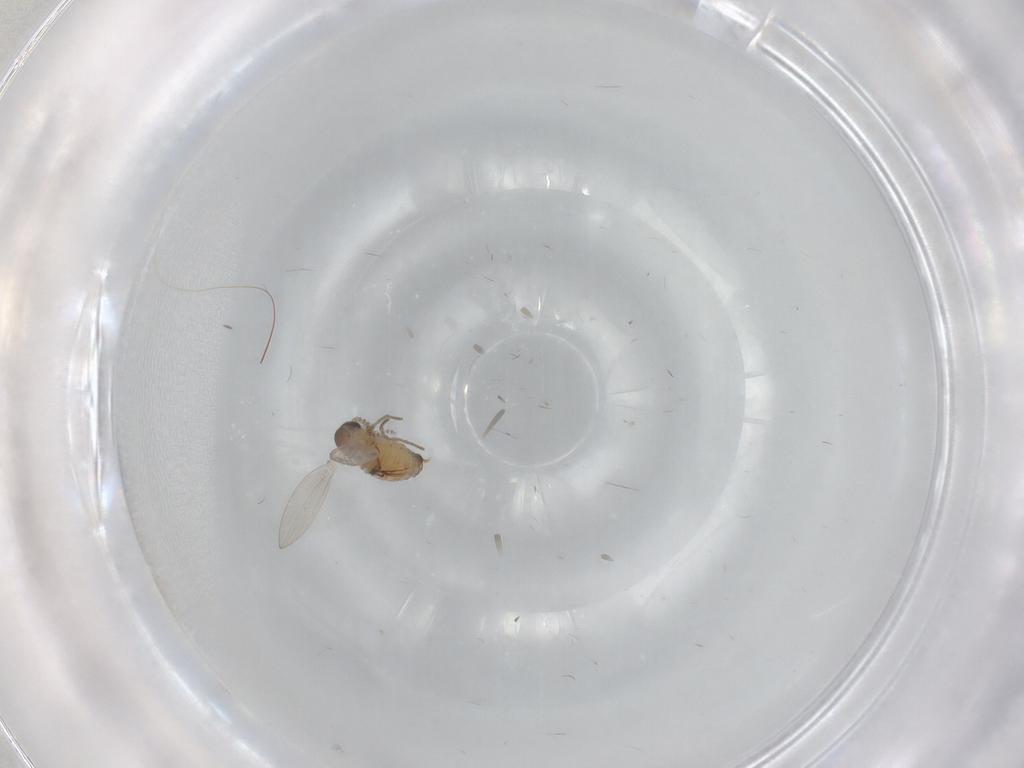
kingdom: Animalia
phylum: Arthropoda
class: Insecta
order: Diptera
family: Psychodidae
